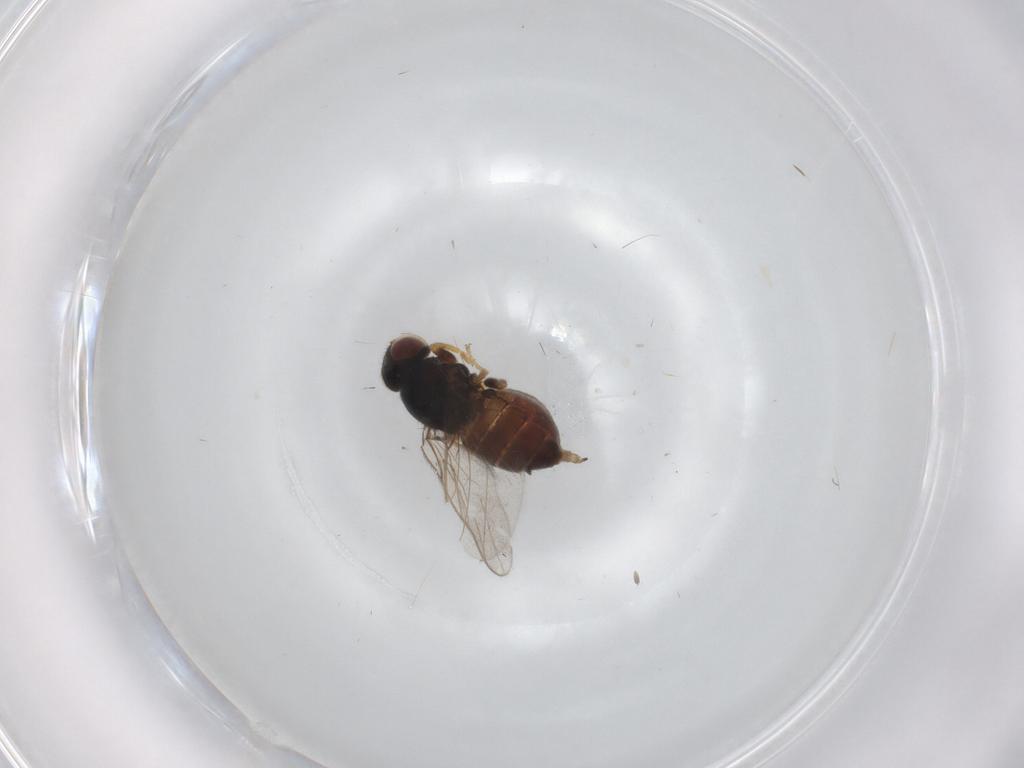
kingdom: Animalia
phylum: Arthropoda
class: Insecta
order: Diptera
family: Chloropidae
